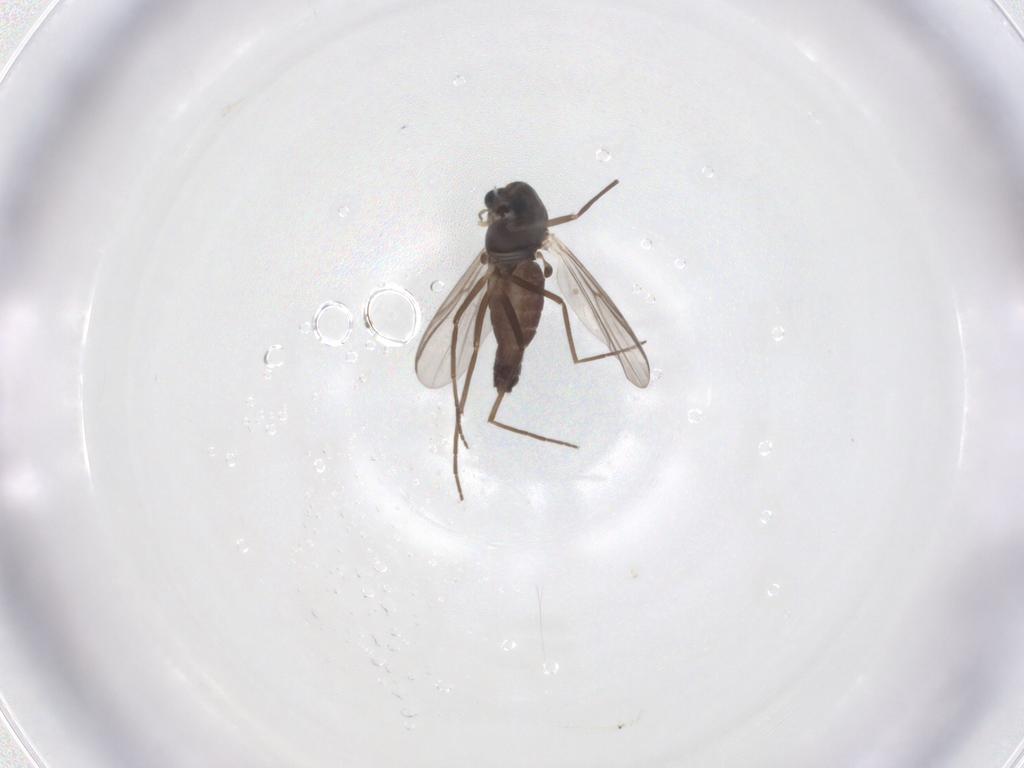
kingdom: Animalia
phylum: Arthropoda
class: Insecta
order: Diptera
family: Chironomidae
